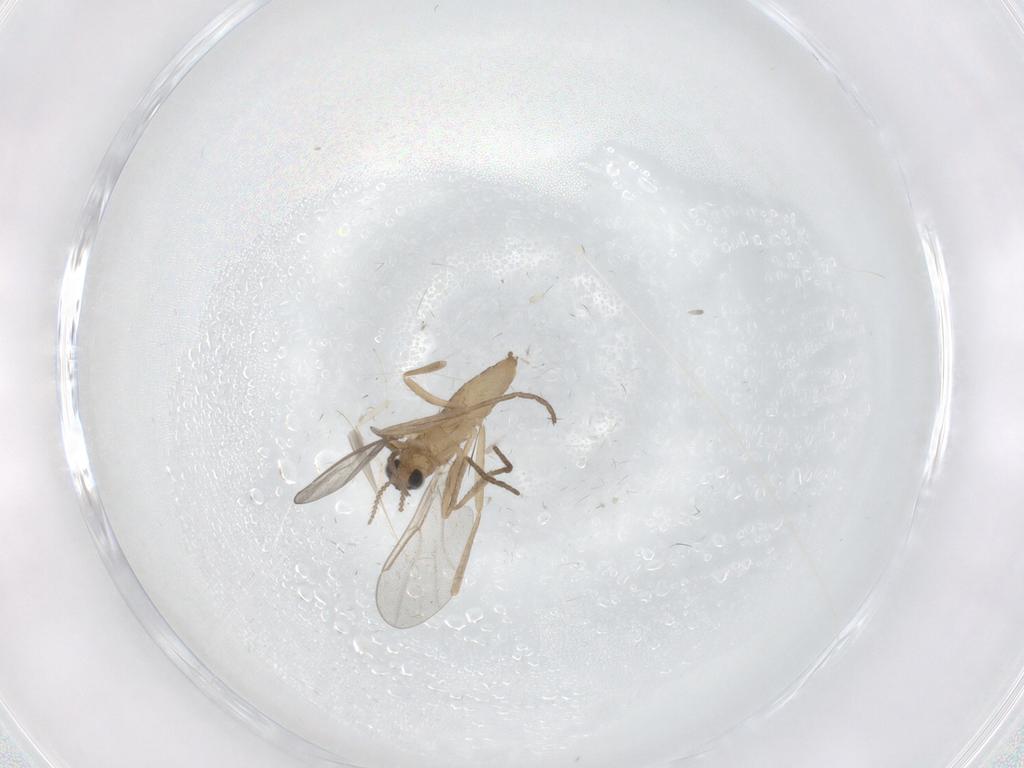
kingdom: Animalia
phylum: Arthropoda
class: Insecta
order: Diptera
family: Cecidomyiidae
